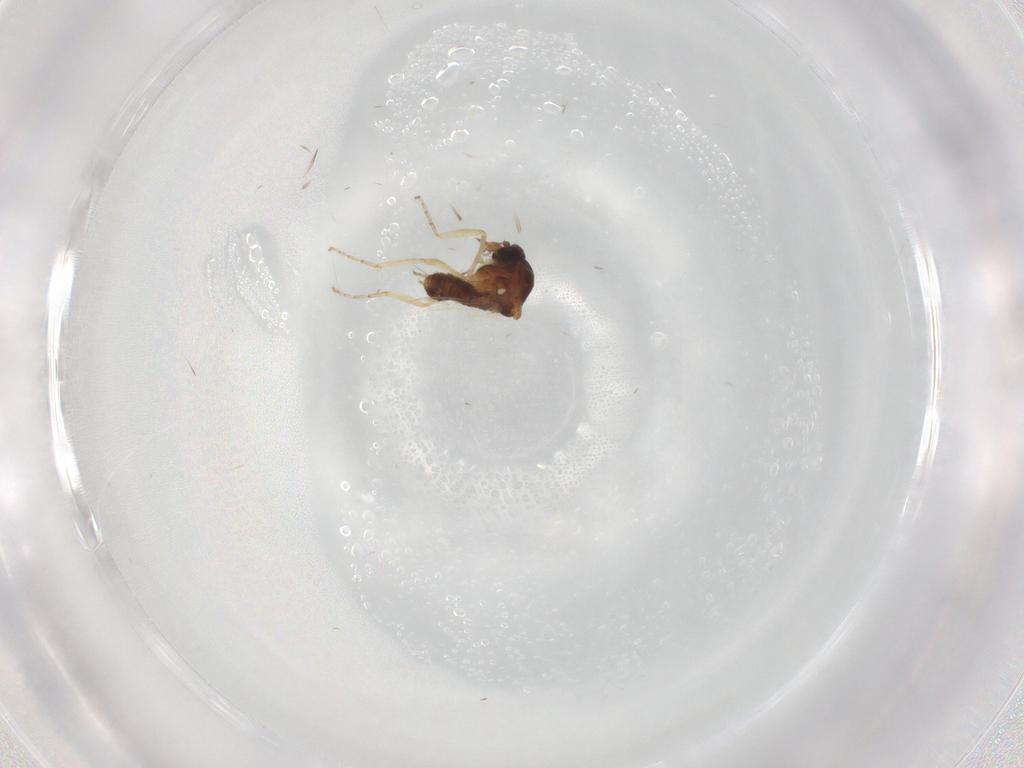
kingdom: Animalia
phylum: Arthropoda
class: Insecta
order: Diptera
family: Ceratopogonidae
